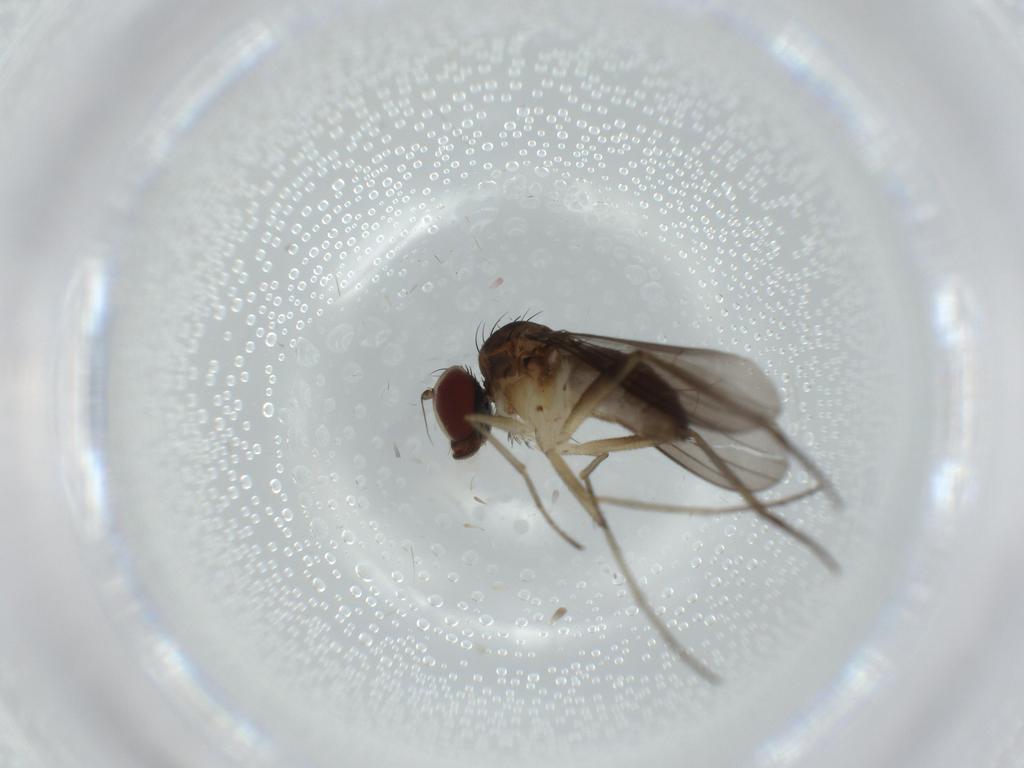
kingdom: Animalia
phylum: Arthropoda
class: Insecta
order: Diptera
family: Dolichopodidae
